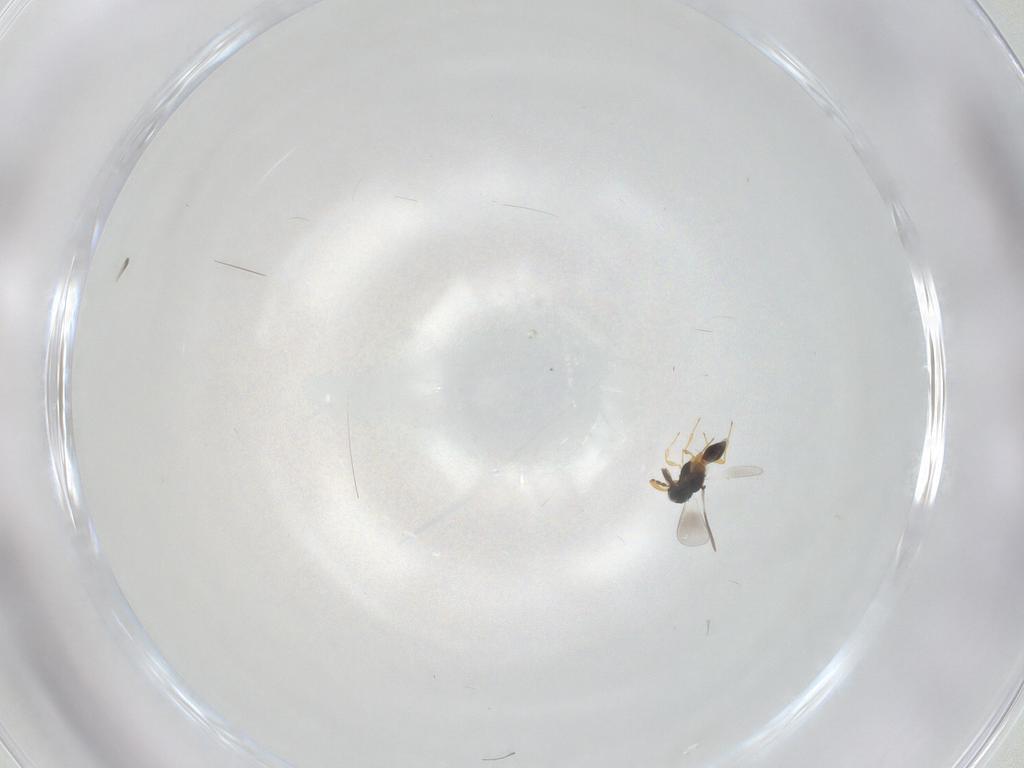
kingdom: Animalia
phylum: Arthropoda
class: Insecta
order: Hymenoptera
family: Platygastridae
